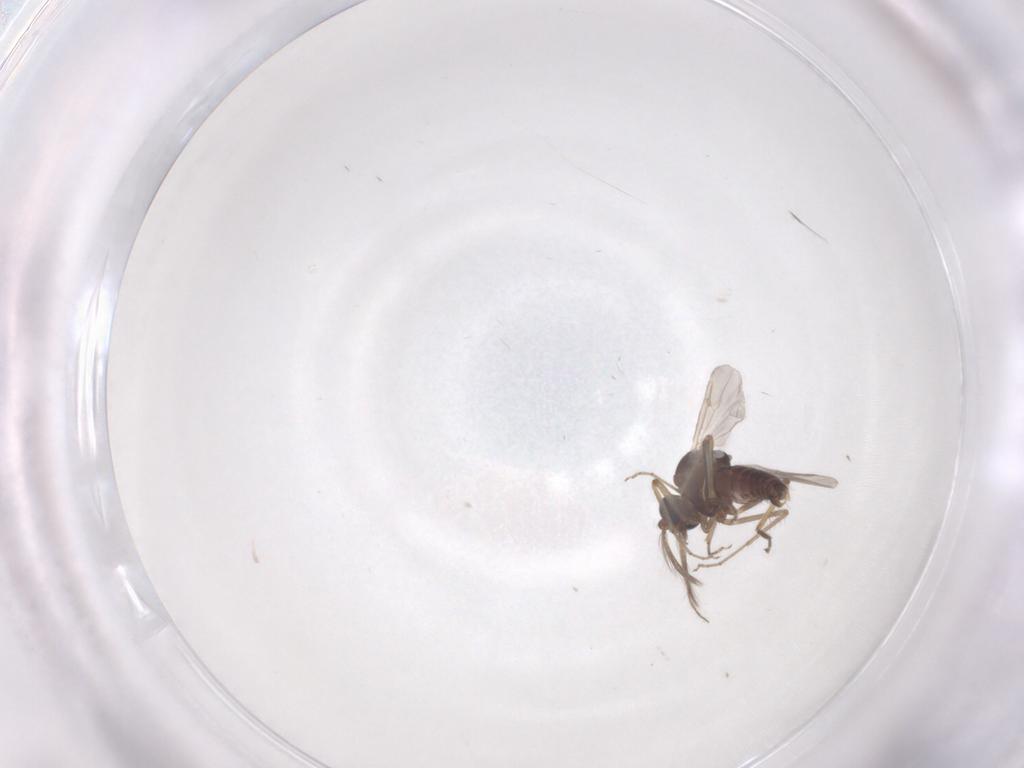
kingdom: Animalia
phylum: Arthropoda
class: Insecta
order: Diptera
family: Ceratopogonidae
